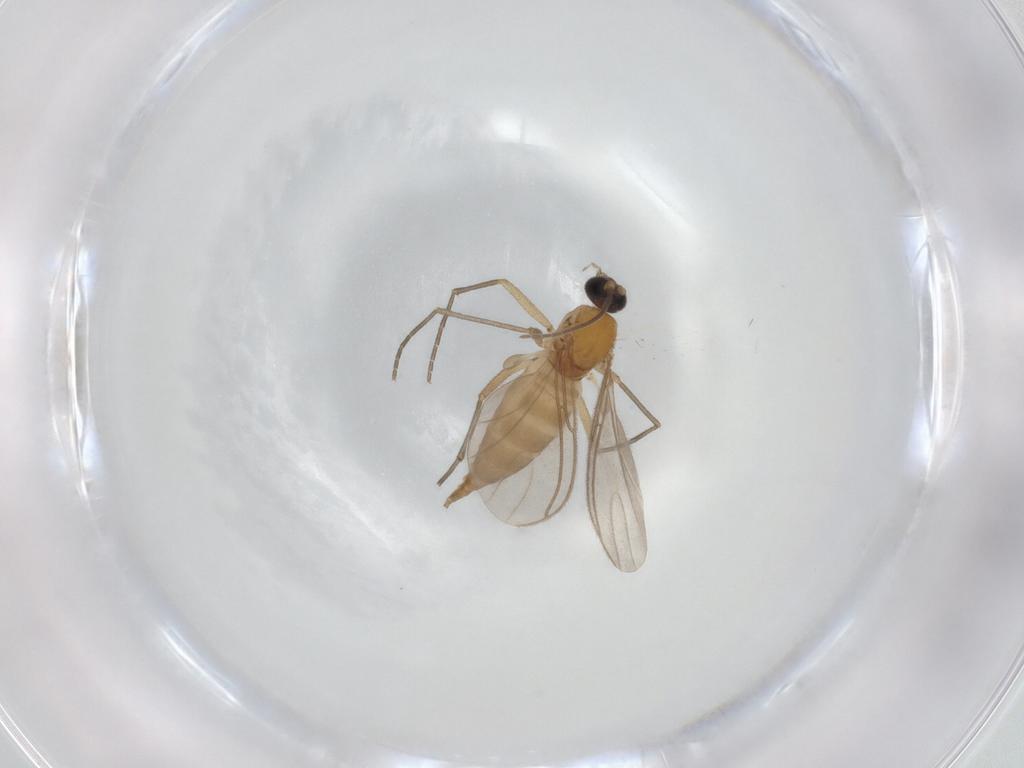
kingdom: Animalia
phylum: Arthropoda
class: Insecta
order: Diptera
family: Sciaridae
